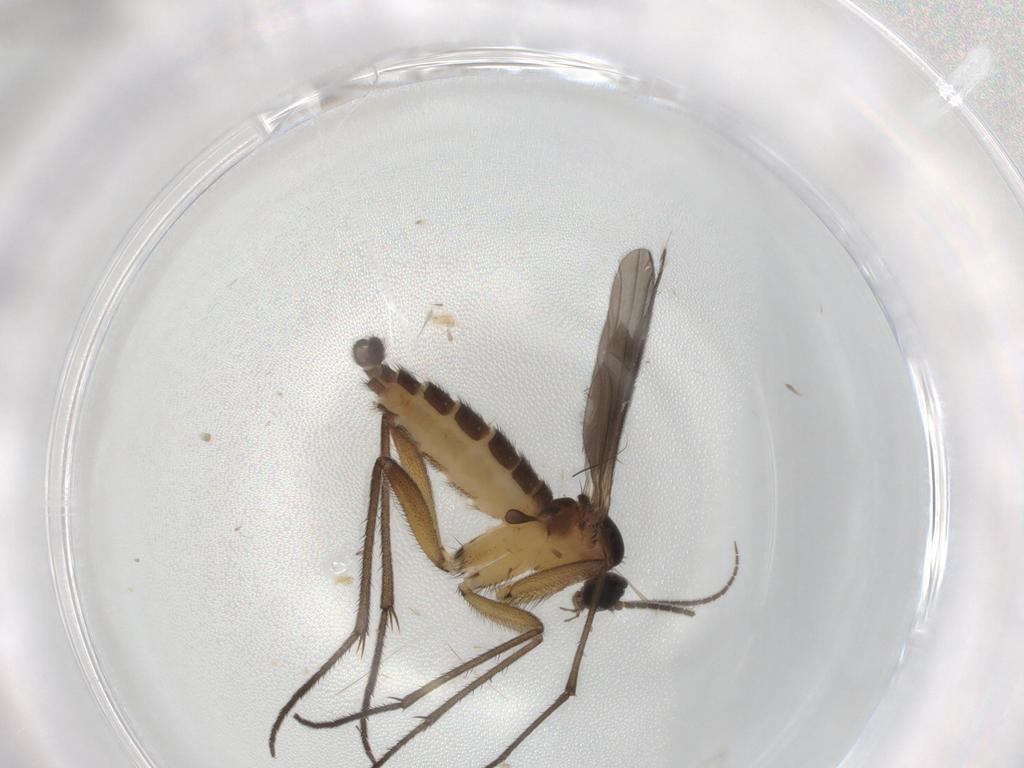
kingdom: Animalia
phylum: Arthropoda
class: Insecta
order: Diptera
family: Sciaridae
